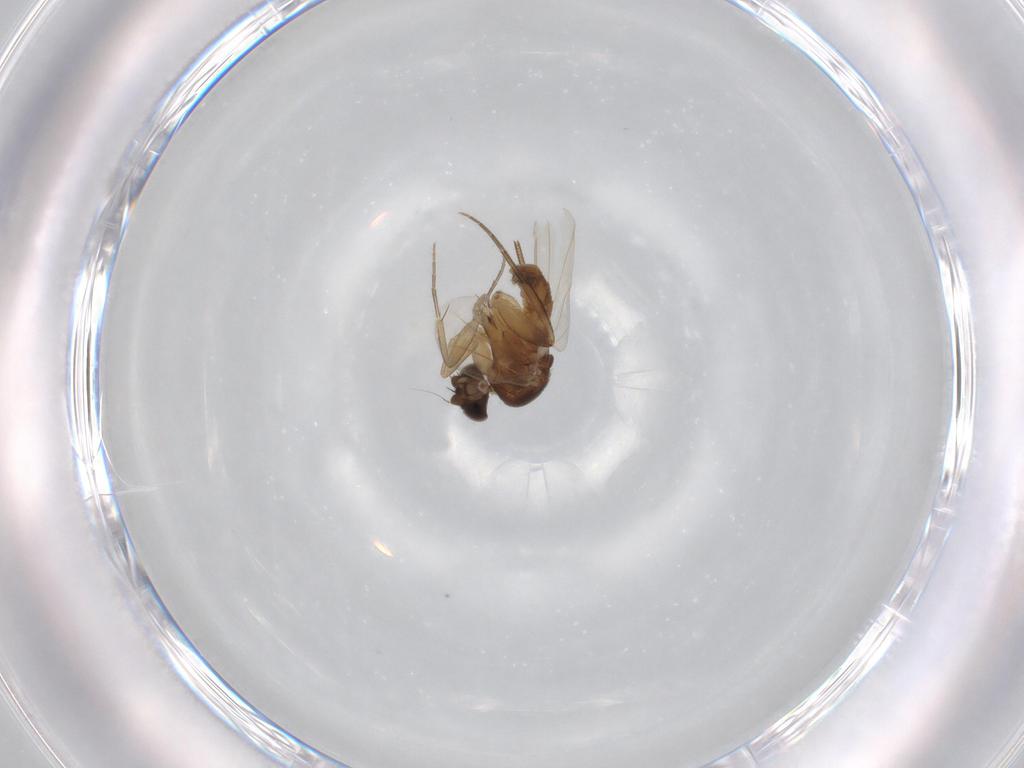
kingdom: Animalia
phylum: Arthropoda
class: Insecta
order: Diptera
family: Phoridae
